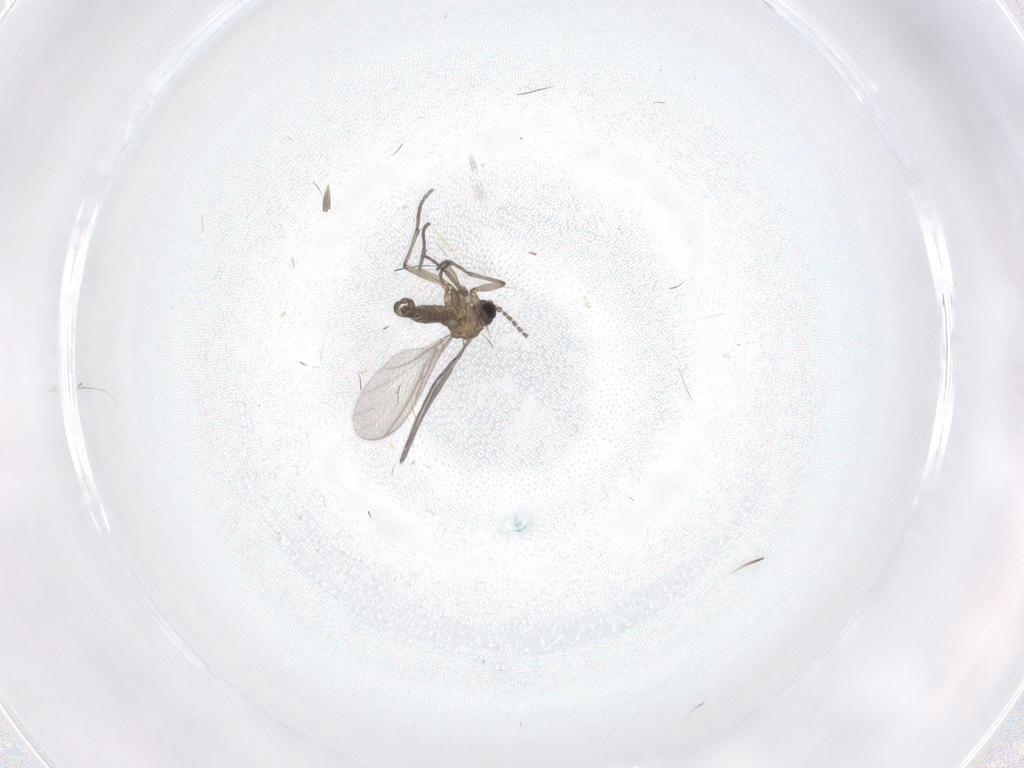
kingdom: Animalia
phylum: Arthropoda
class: Insecta
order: Diptera
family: Sciaridae
